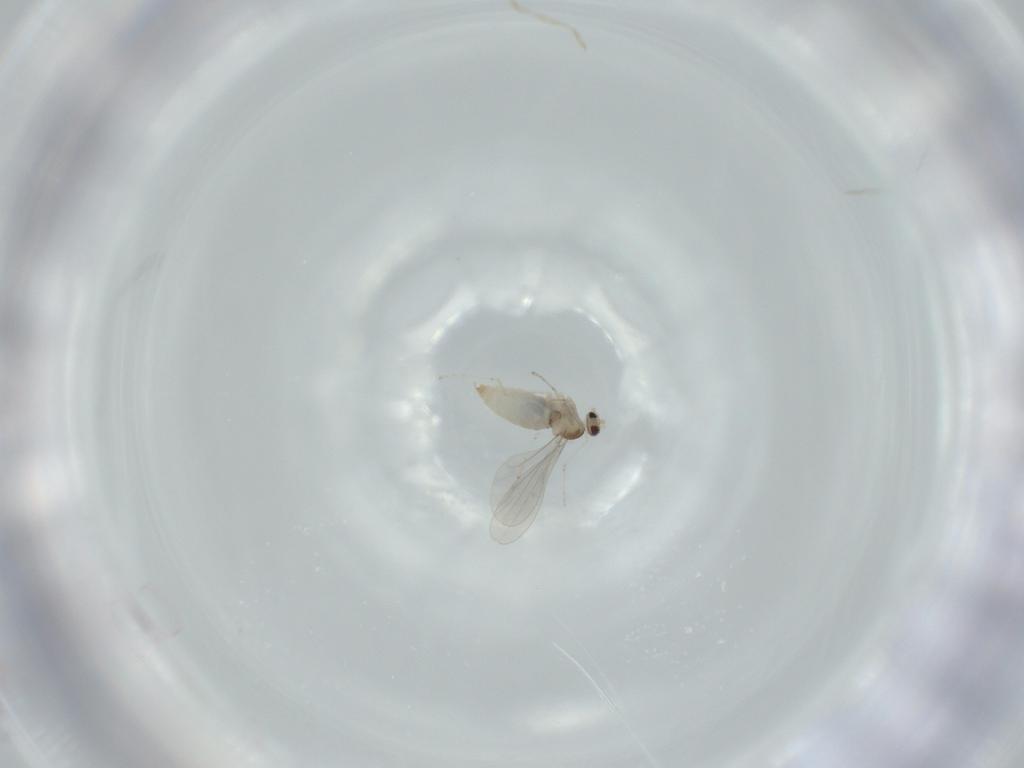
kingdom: Animalia
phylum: Arthropoda
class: Insecta
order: Diptera
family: Cecidomyiidae
